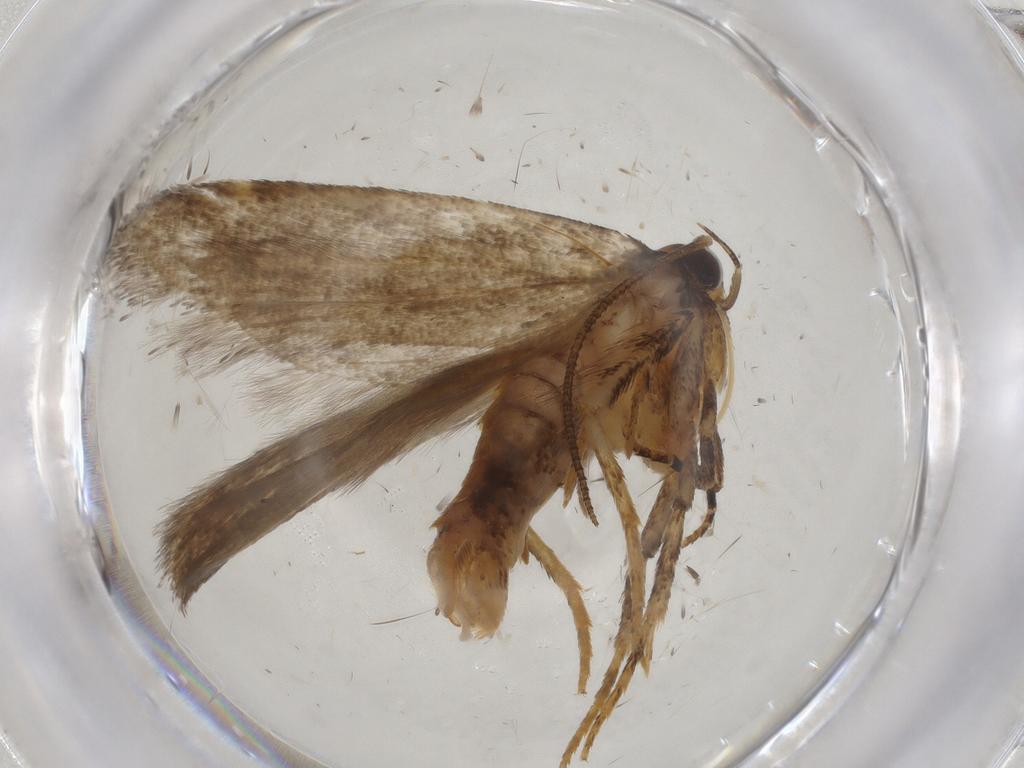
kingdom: Animalia
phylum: Arthropoda
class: Insecta
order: Lepidoptera
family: Gelechiidae
